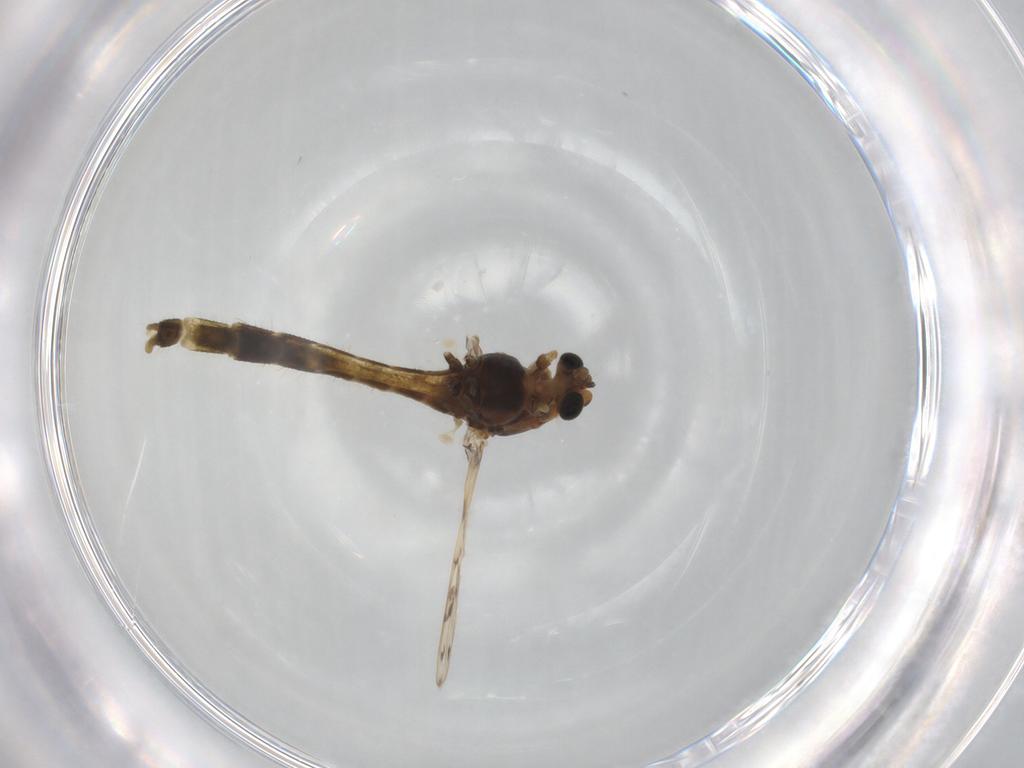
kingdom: Animalia
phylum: Arthropoda
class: Insecta
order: Diptera
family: Chironomidae
